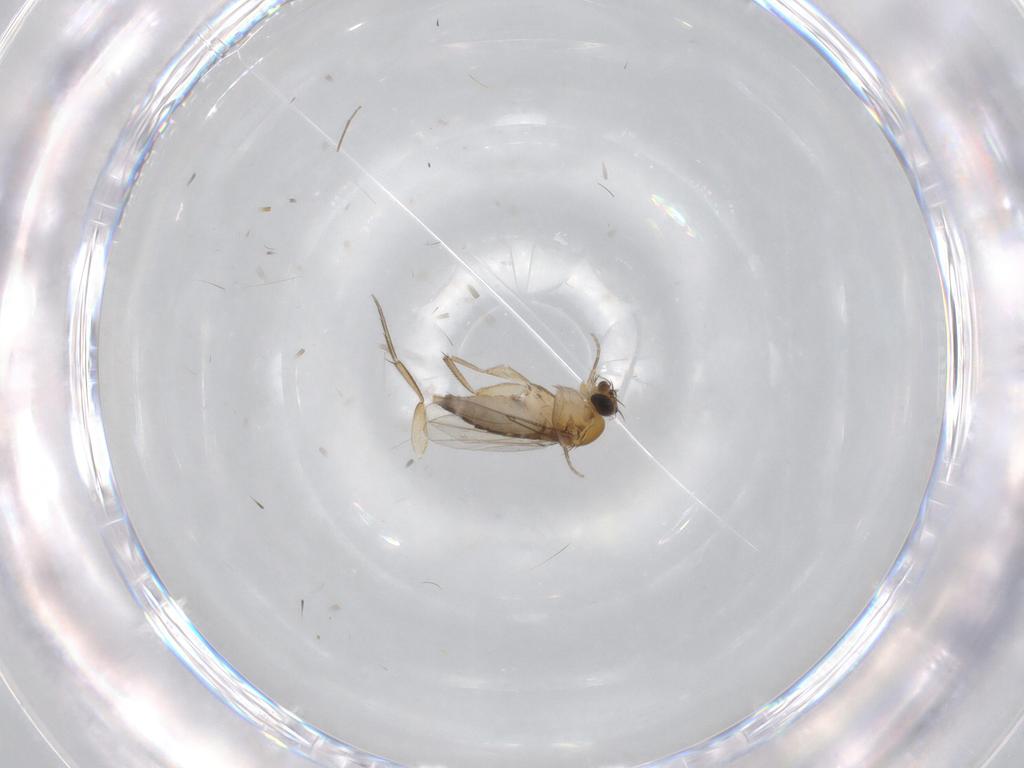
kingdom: Animalia
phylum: Arthropoda
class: Insecta
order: Diptera
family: Phoridae
